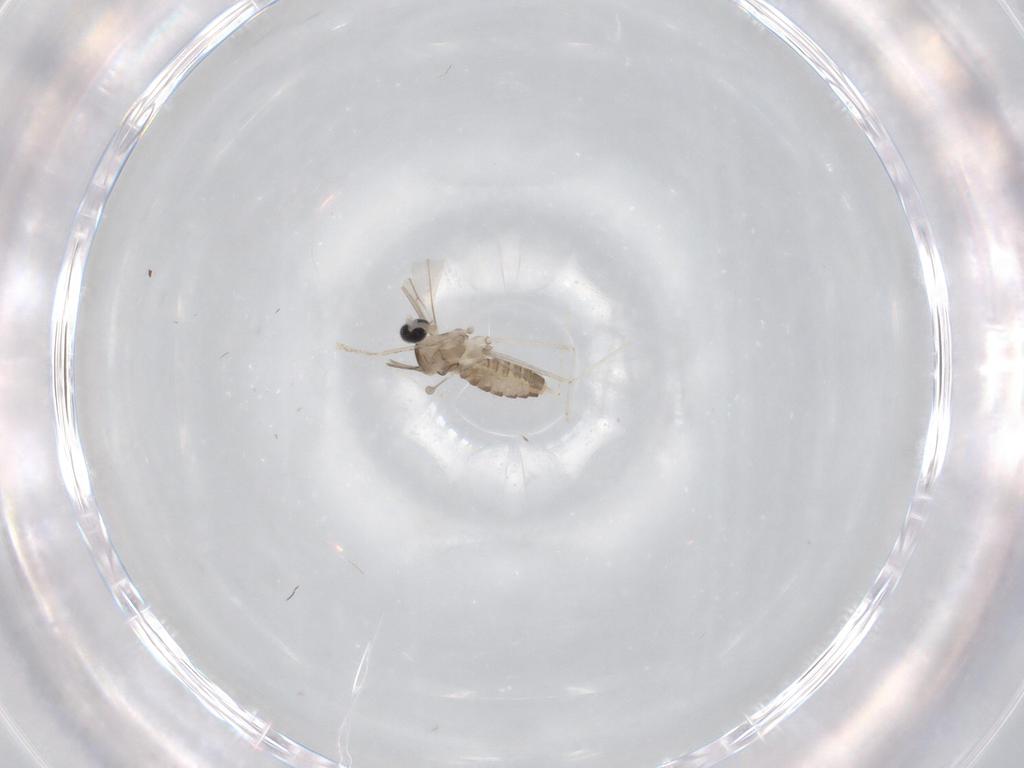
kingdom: Animalia
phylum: Arthropoda
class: Insecta
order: Diptera
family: Cecidomyiidae
